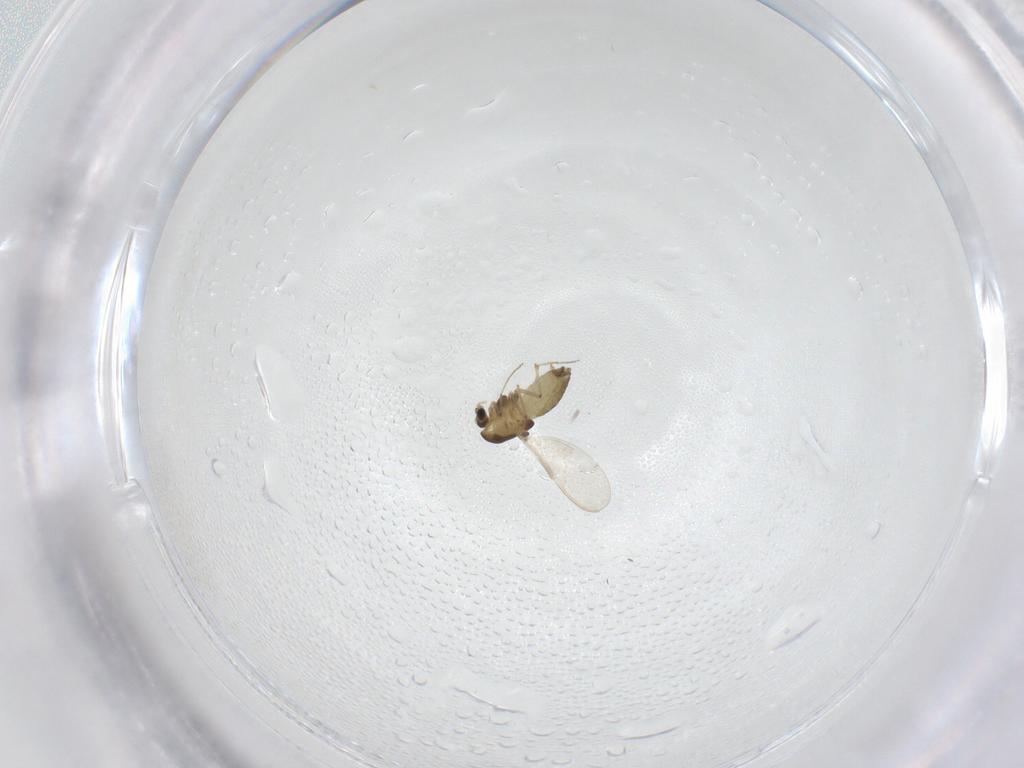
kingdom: Animalia
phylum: Arthropoda
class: Insecta
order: Diptera
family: Chironomidae
